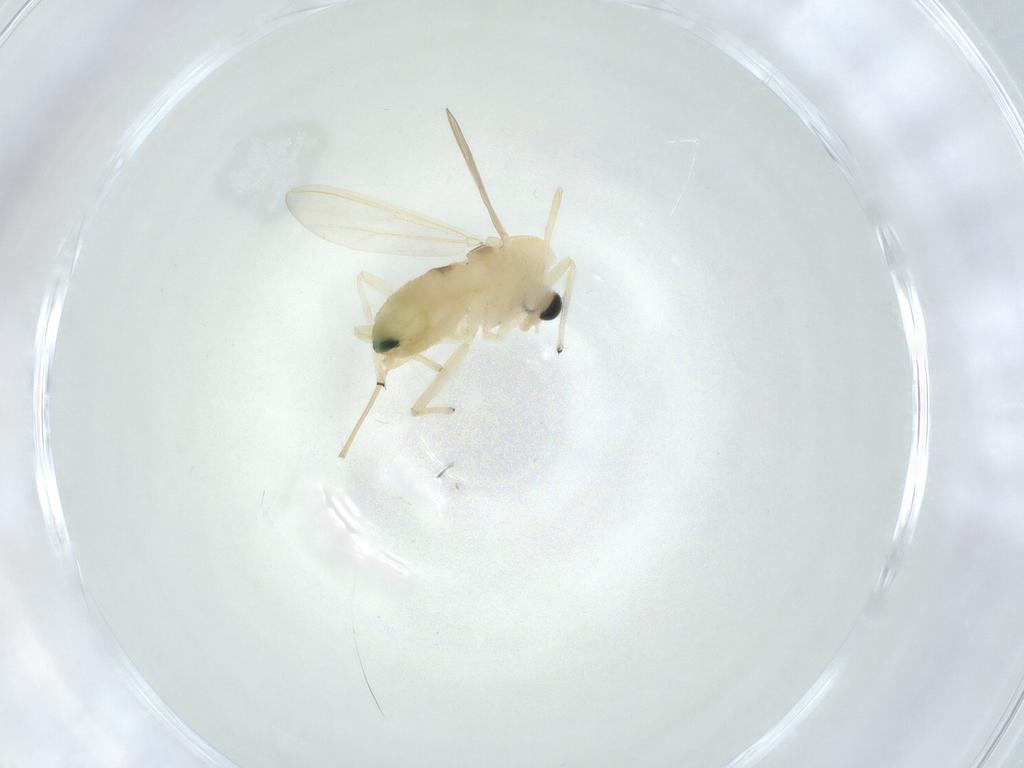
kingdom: Animalia
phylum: Arthropoda
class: Insecta
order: Diptera
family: Chironomidae
